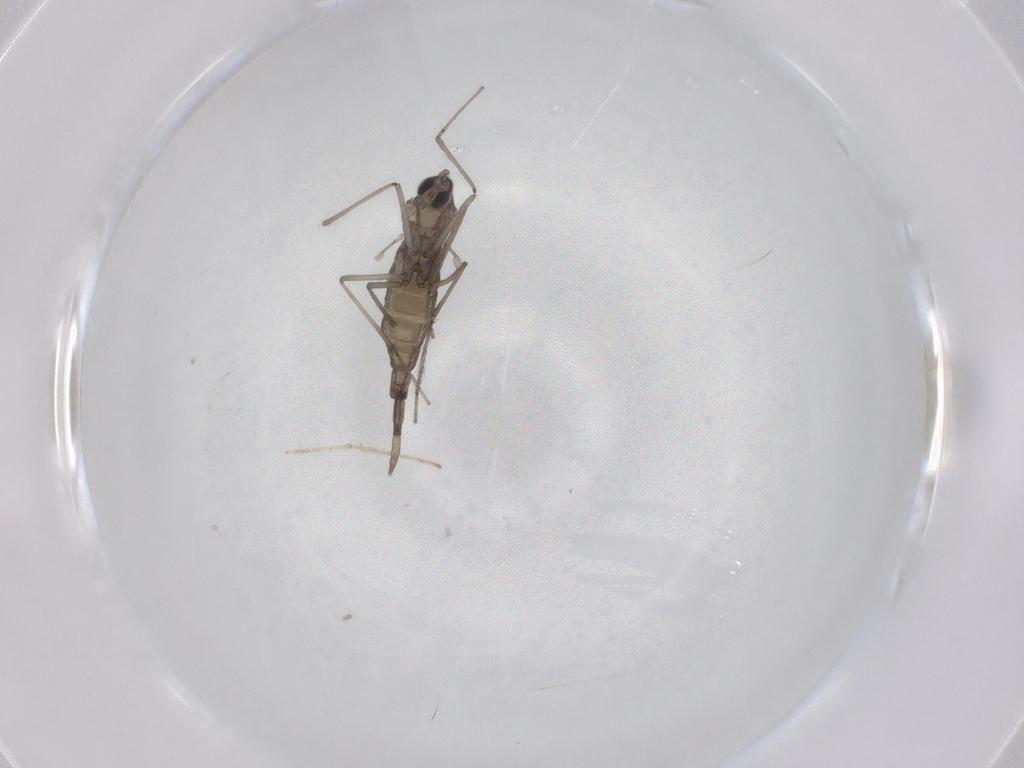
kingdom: Animalia
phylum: Arthropoda
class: Insecta
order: Diptera
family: Cecidomyiidae
